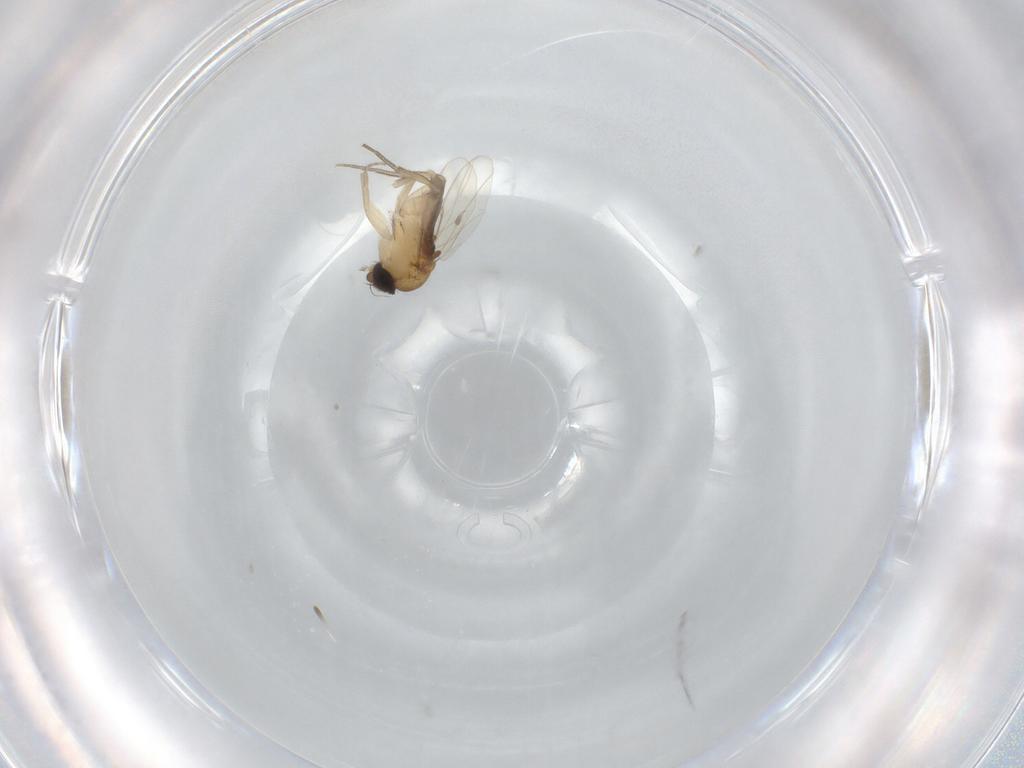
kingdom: Animalia
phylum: Arthropoda
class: Insecta
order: Diptera
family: Phoridae
